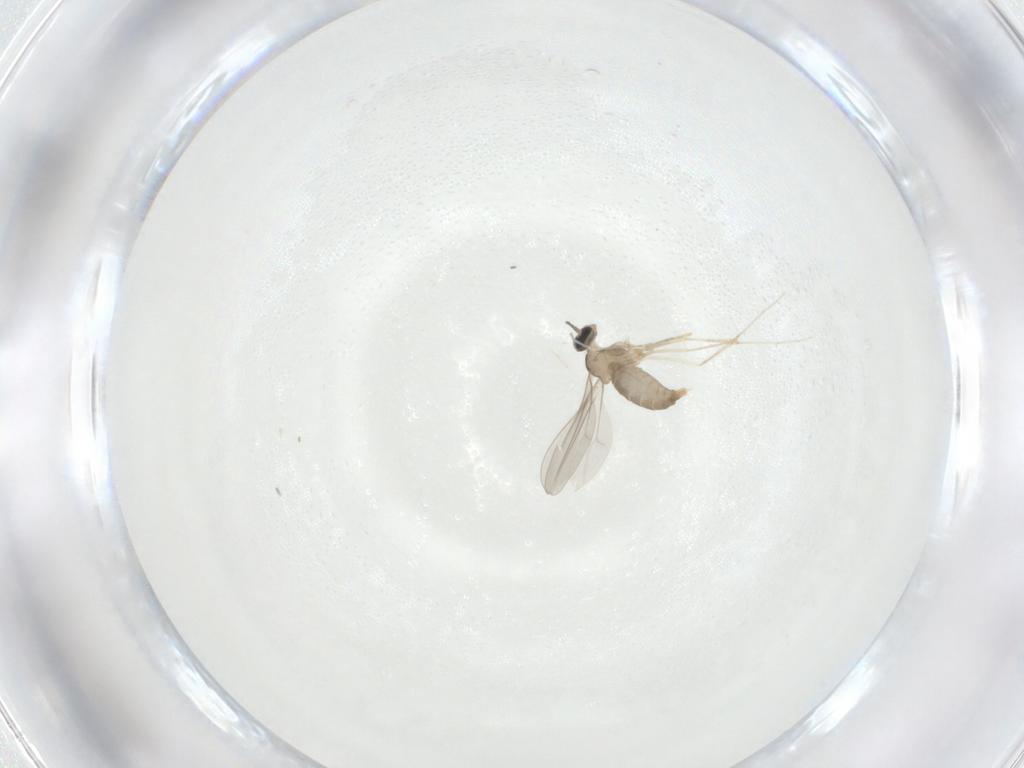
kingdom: Animalia
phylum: Arthropoda
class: Insecta
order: Diptera
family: Cecidomyiidae
